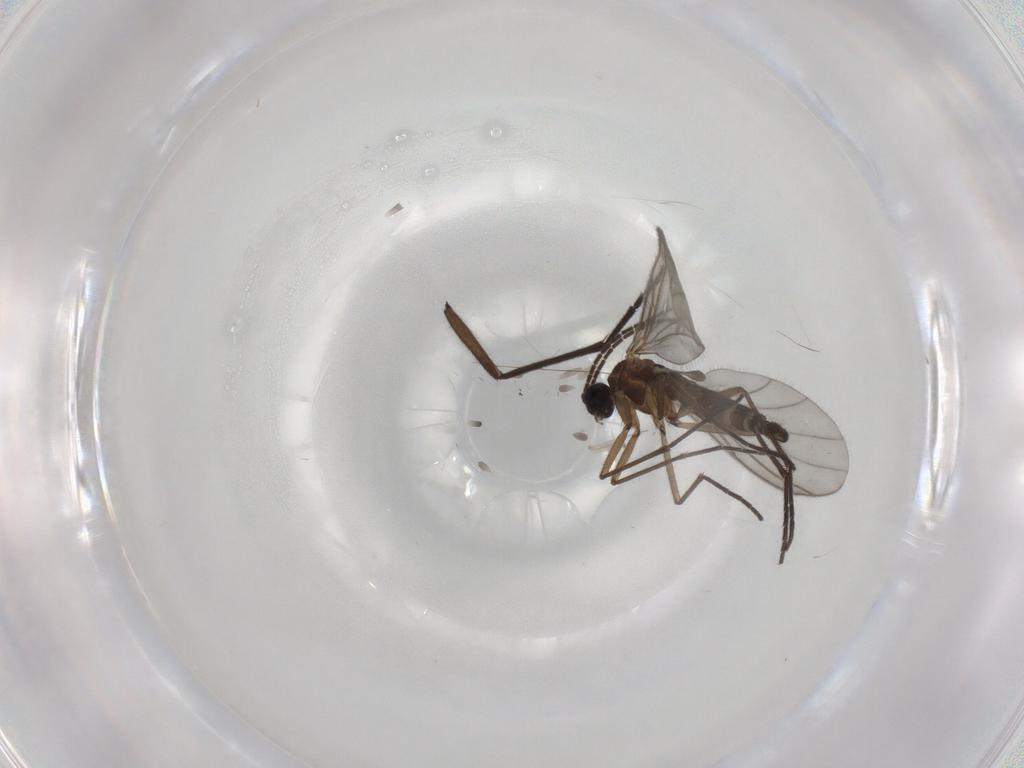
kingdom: Animalia
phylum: Arthropoda
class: Insecta
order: Diptera
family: Sciaridae
